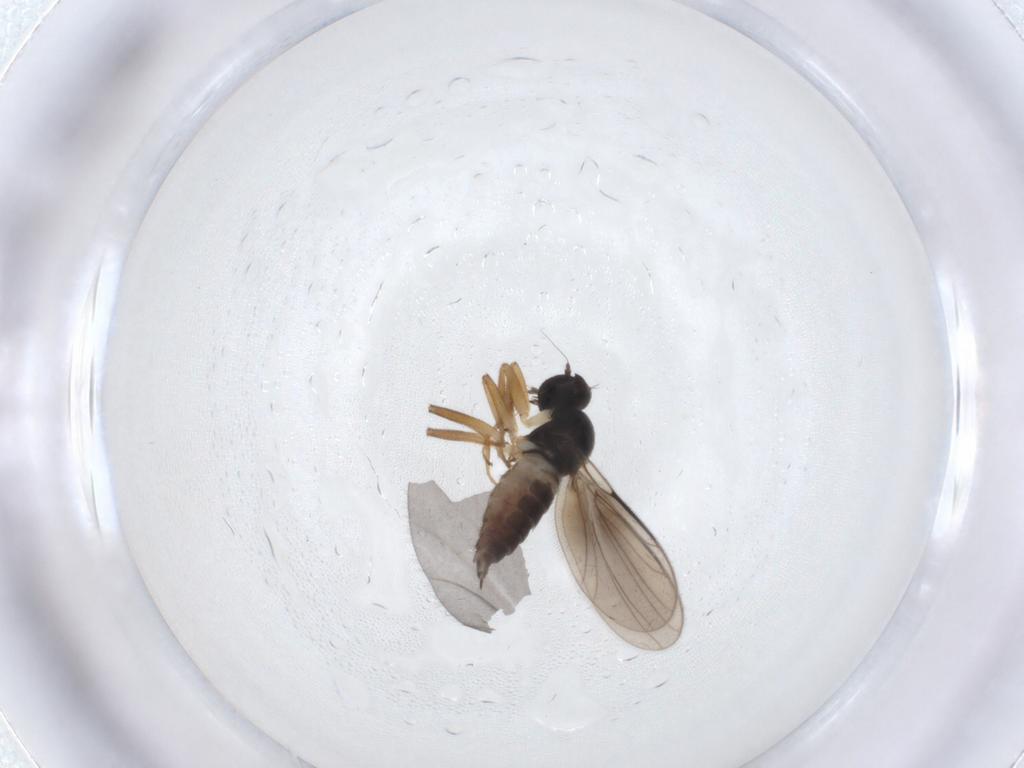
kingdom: Animalia
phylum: Arthropoda
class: Insecta
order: Diptera
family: Hybotidae
